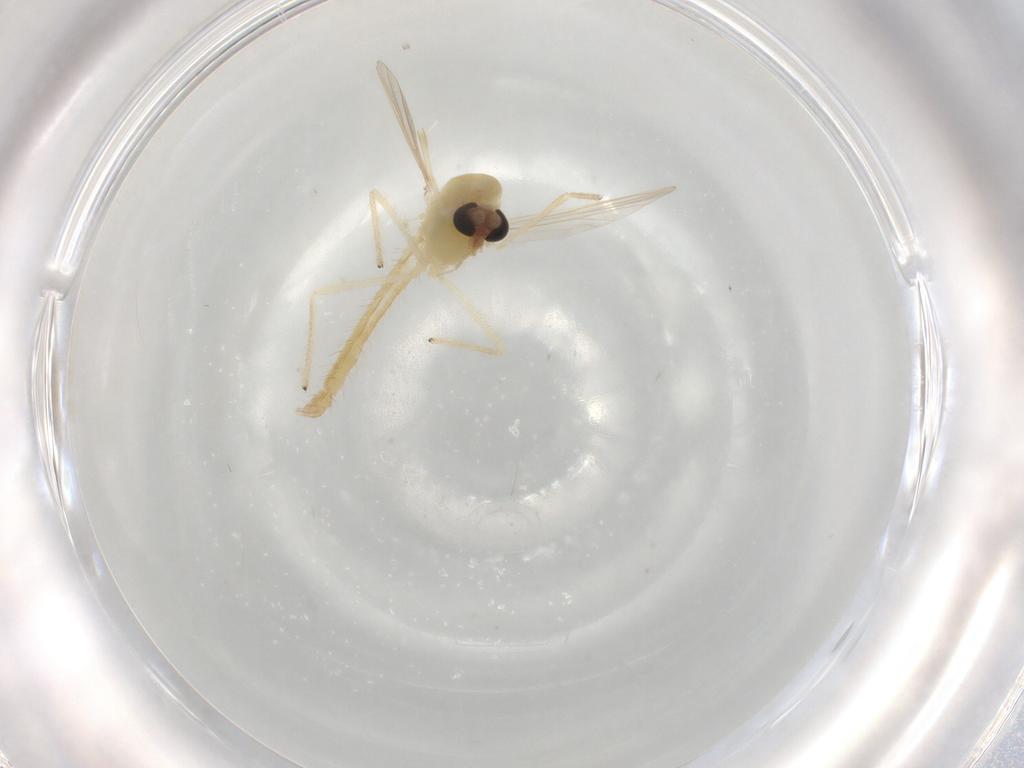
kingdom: Animalia
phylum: Arthropoda
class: Insecta
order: Diptera
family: Chironomidae
